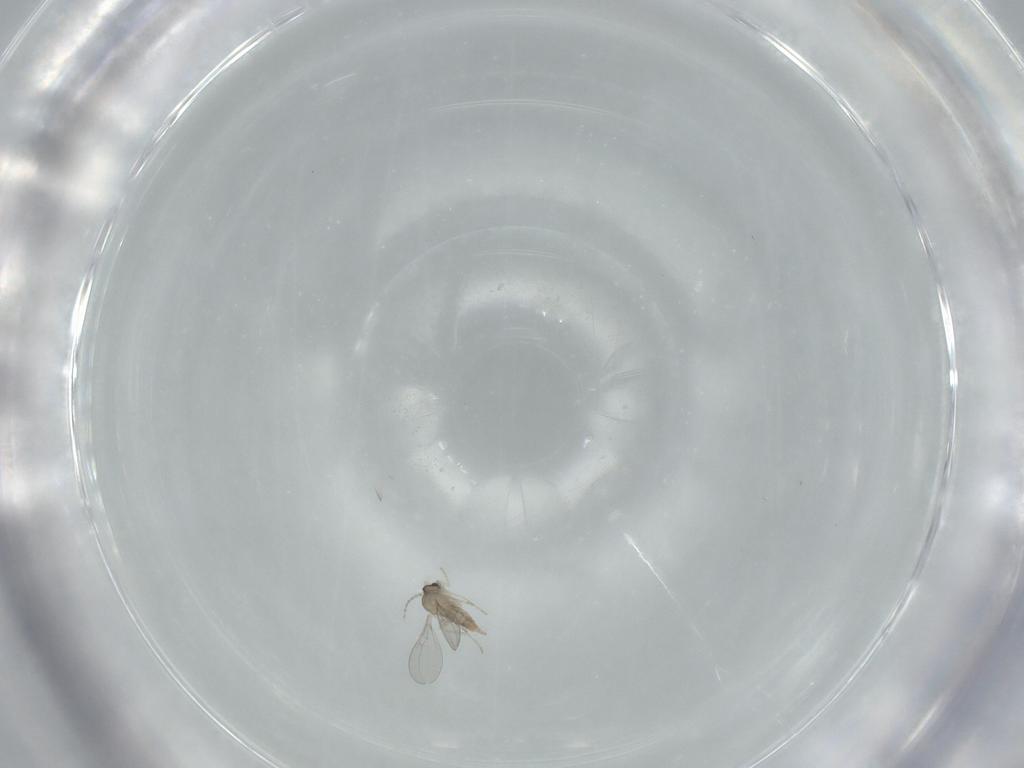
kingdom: Animalia
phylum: Arthropoda
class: Insecta
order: Diptera
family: Cecidomyiidae
